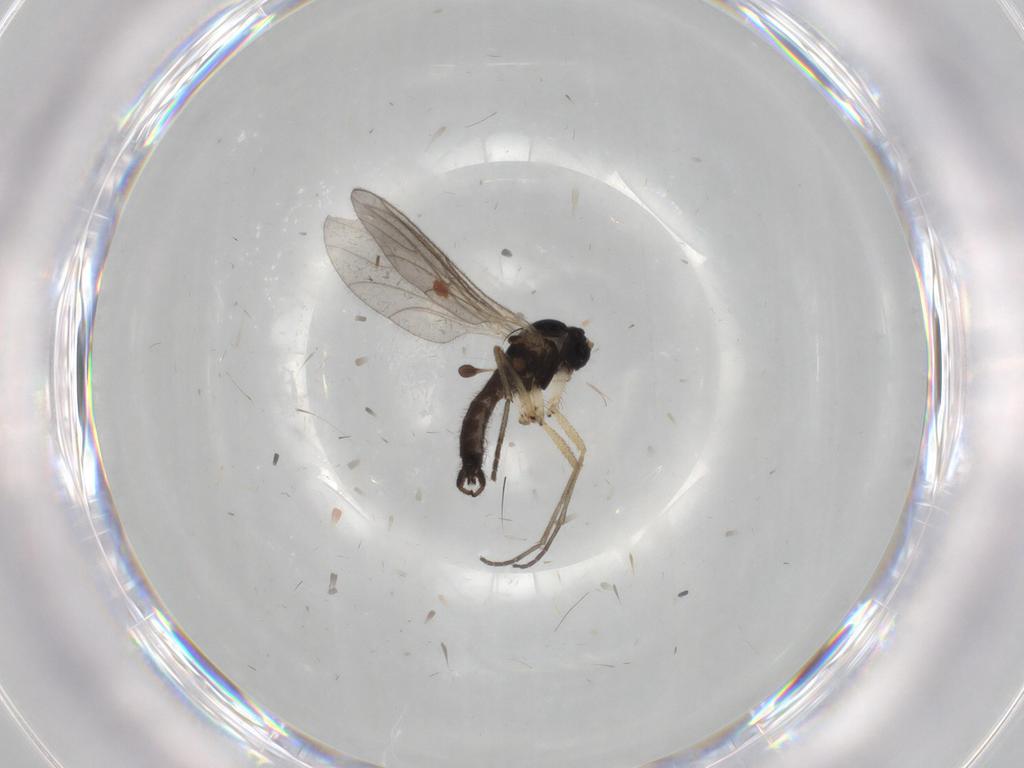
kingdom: Animalia
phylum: Arthropoda
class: Insecta
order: Diptera
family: Sciaridae
